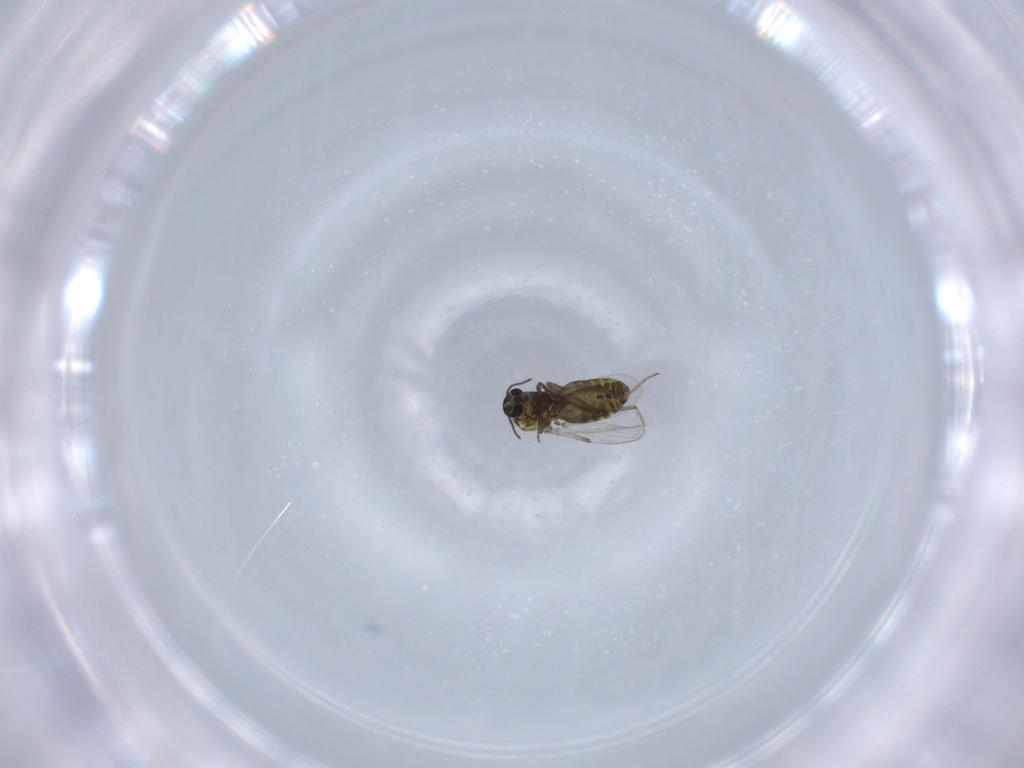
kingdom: Animalia
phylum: Arthropoda
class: Insecta
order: Diptera
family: Ceratopogonidae
